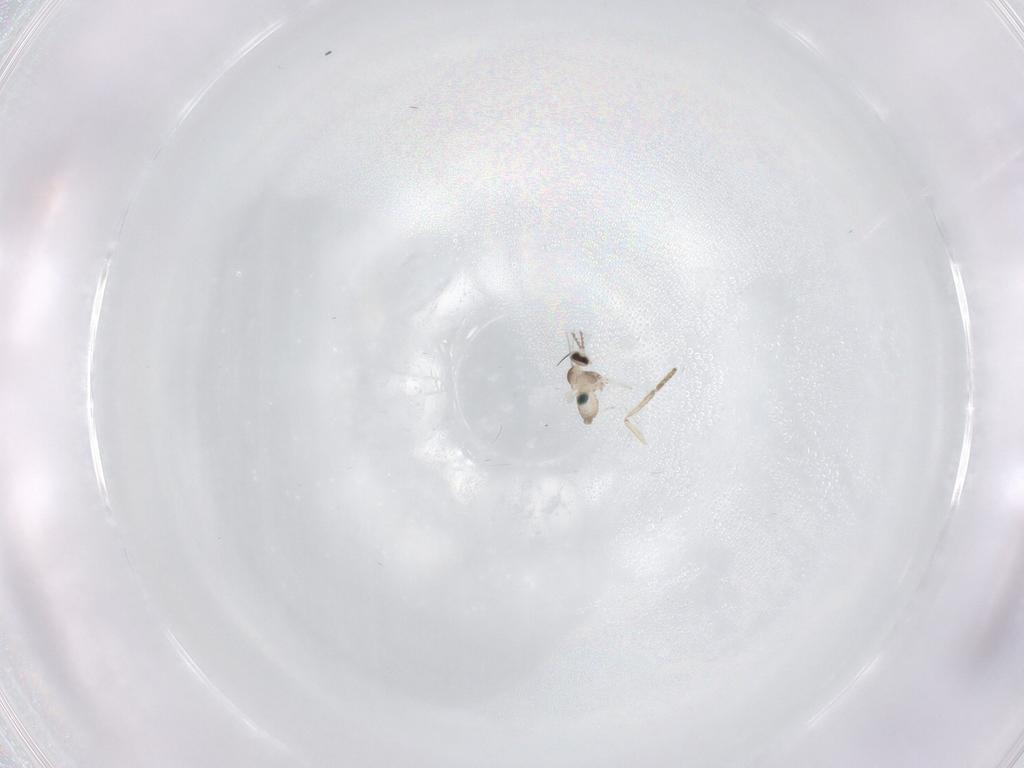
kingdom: Animalia
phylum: Arthropoda
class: Insecta
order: Diptera
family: Cecidomyiidae
